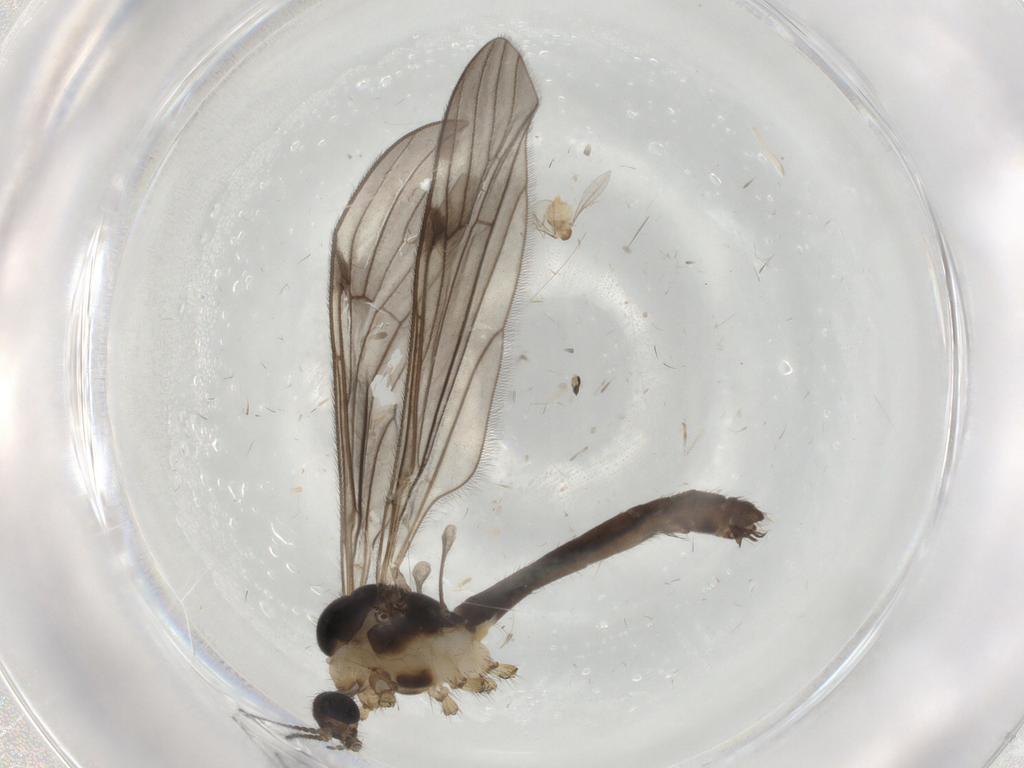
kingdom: Animalia
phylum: Arthropoda
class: Insecta
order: Diptera
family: Limoniidae
